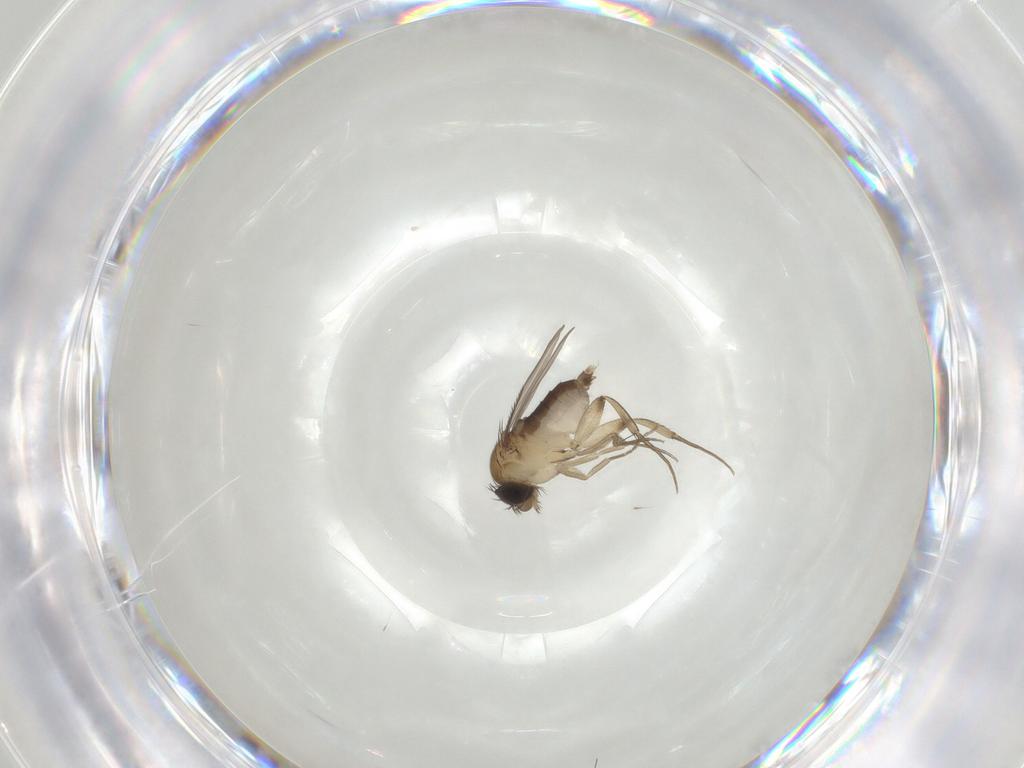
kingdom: Animalia
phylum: Arthropoda
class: Insecta
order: Diptera
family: Phoridae
